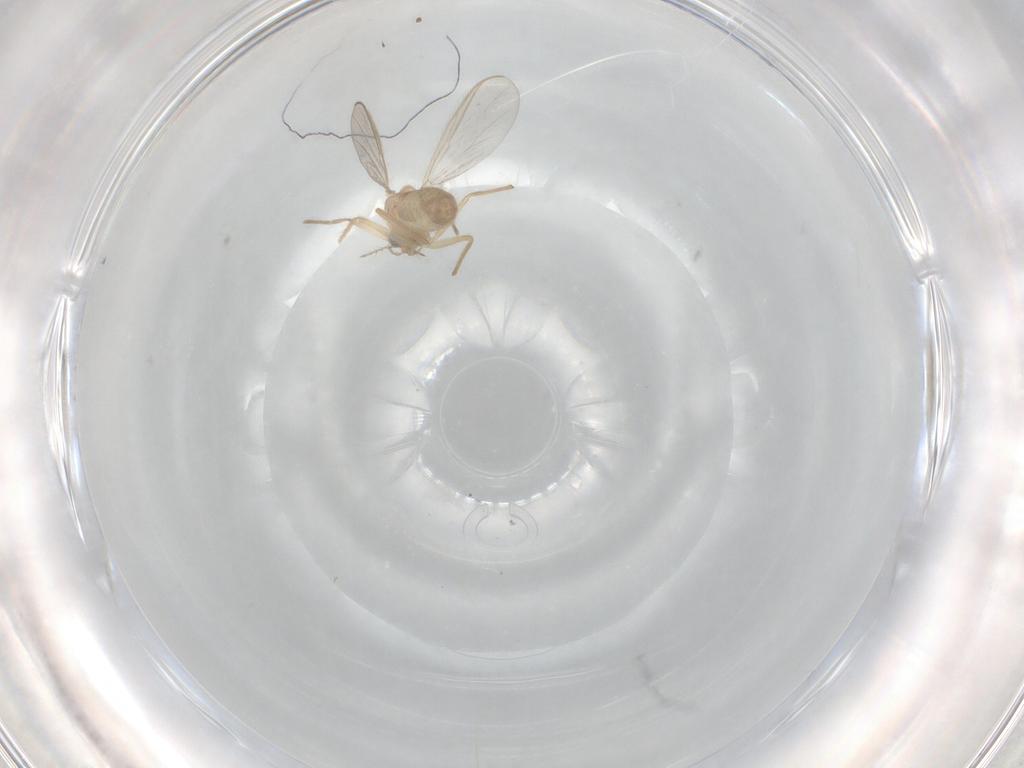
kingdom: Animalia
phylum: Arthropoda
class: Insecta
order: Diptera
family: Chironomidae
